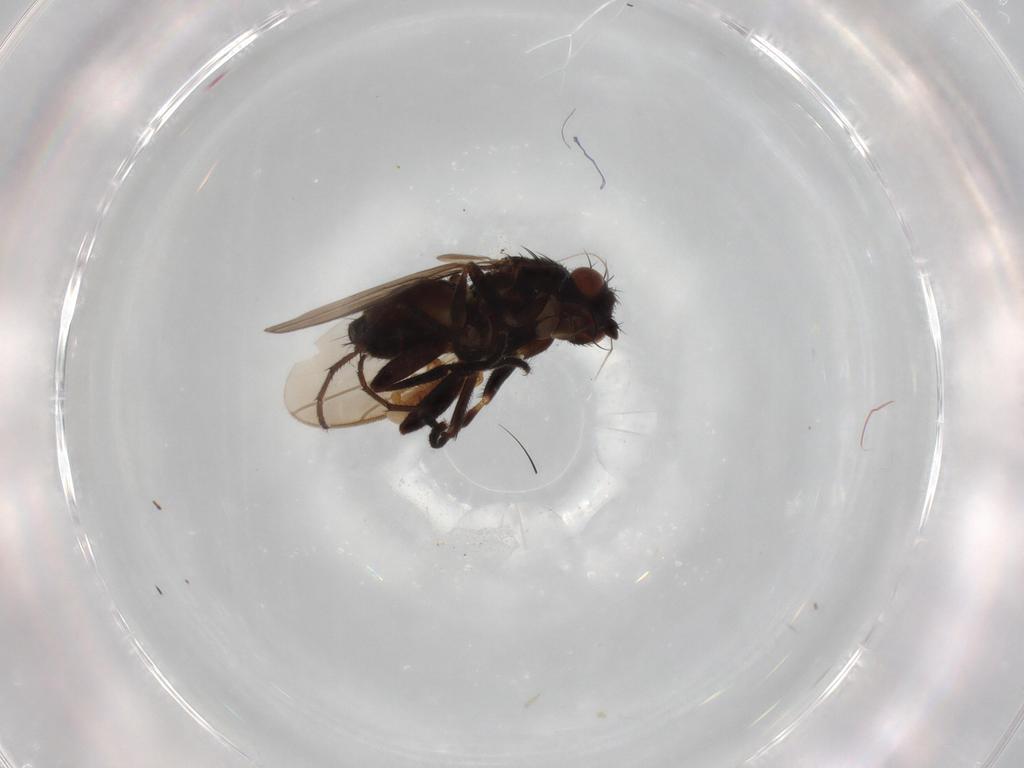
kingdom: Animalia
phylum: Arthropoda
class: Insecta
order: Diptera
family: Sphaeroceridae
